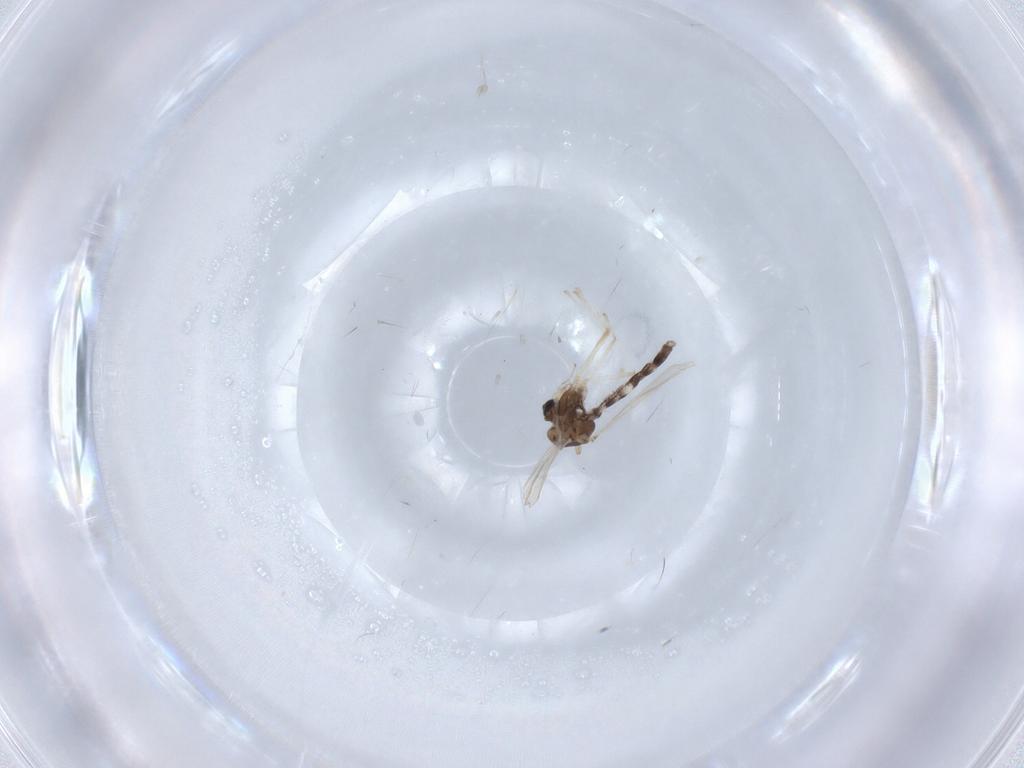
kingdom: Animalia
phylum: Arthropoda
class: Insecta
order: Diptera
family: Chironomidae
